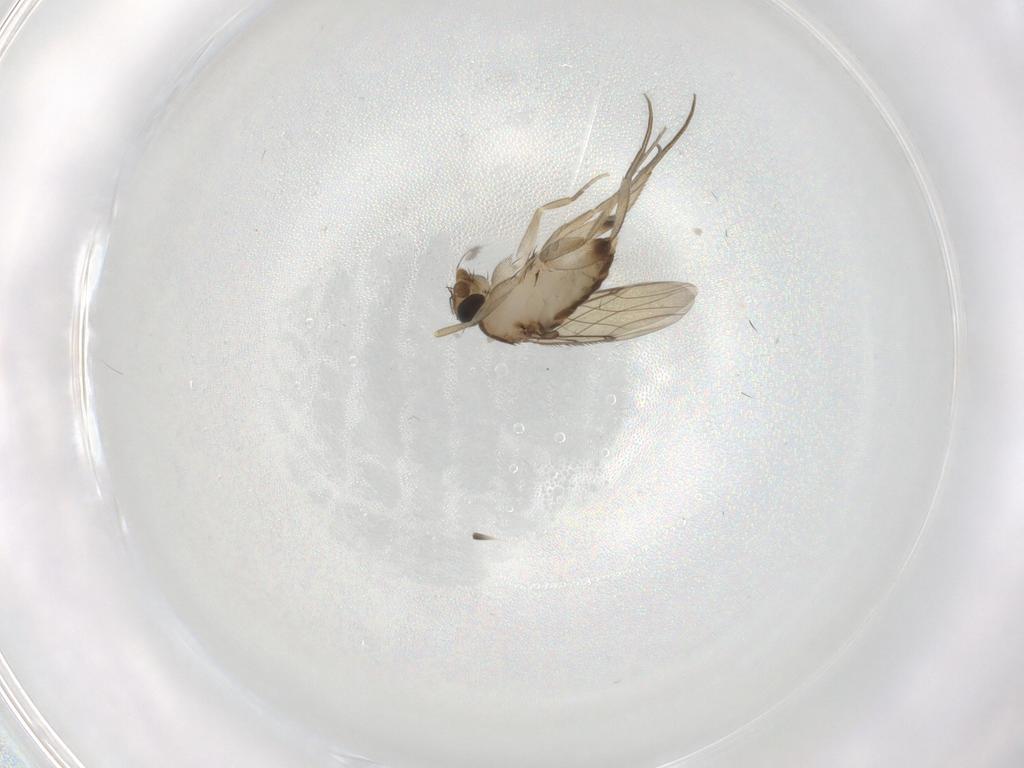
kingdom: Animalia
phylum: Arthropoda
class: Insecta
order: Diptera
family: Phoridae
